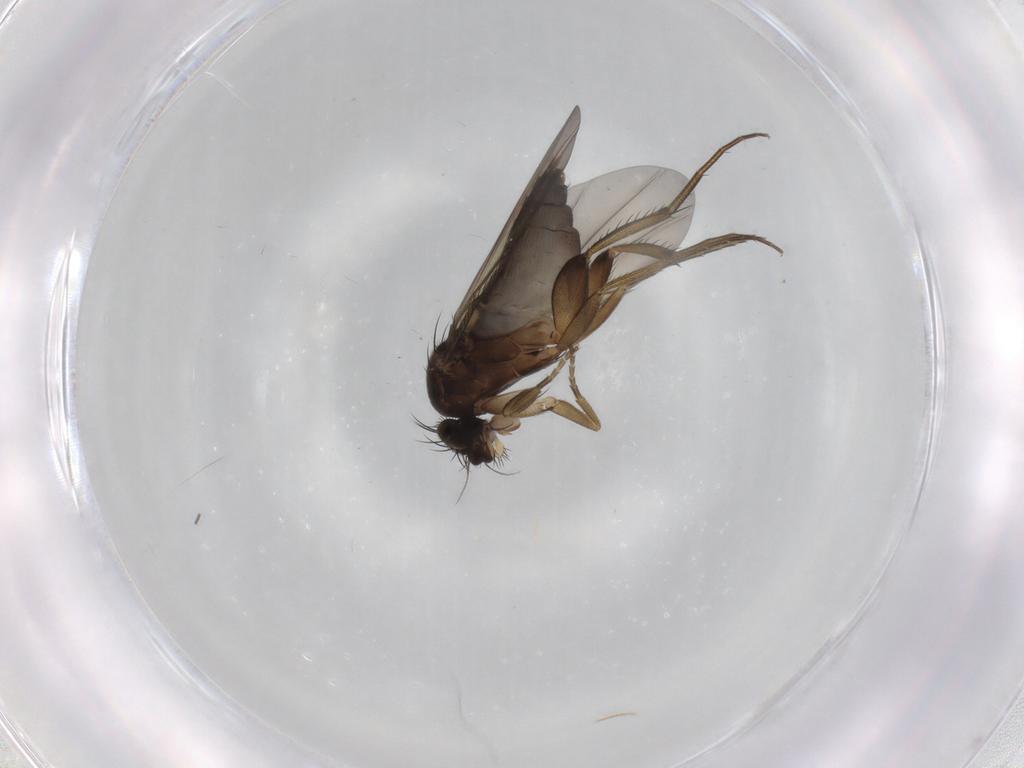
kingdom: Animalia
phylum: Arthropoda
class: Insecta
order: Diptera
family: Phoridae
